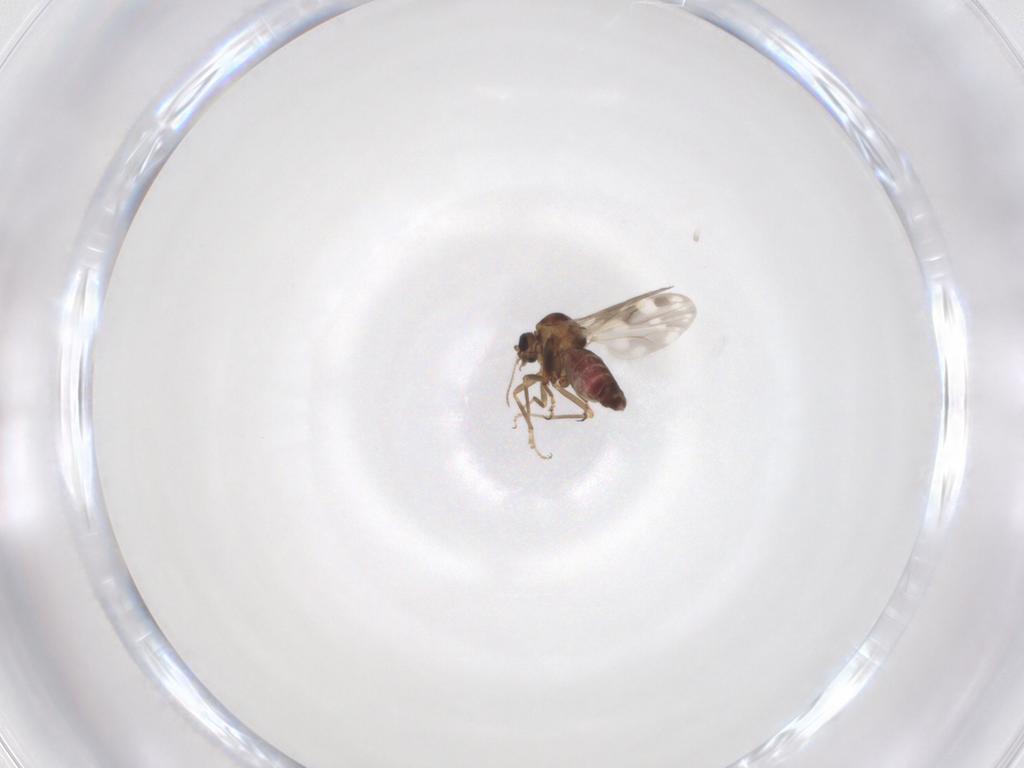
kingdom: Animalia
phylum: Arthropoda
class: Insecta
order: Diptera
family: Ceratopogonidae
